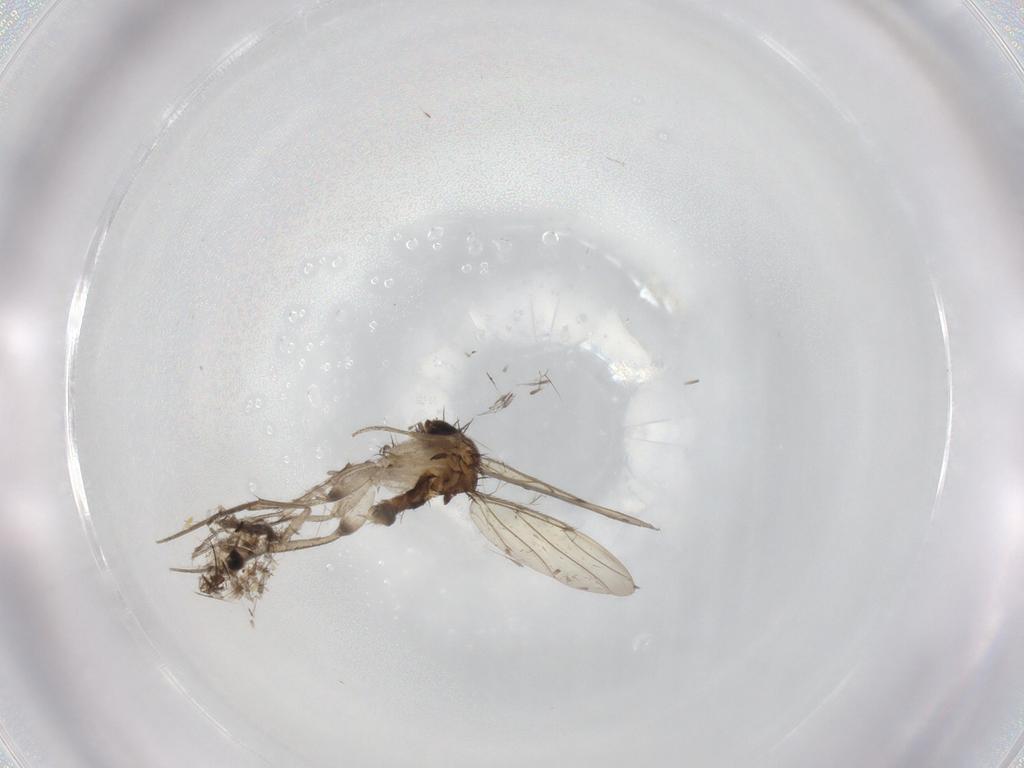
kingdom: Animalia
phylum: Arthropoda
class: Insecta
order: Diptera
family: Sciaridae
